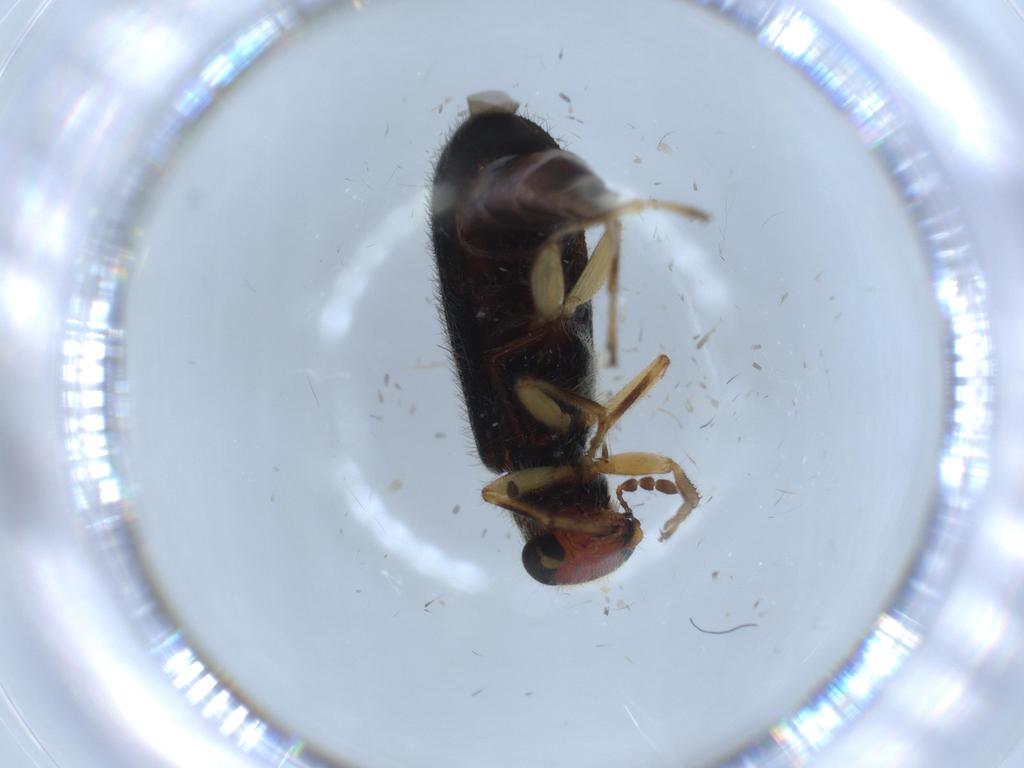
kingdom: Animalia
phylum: Arthropoda
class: Insecta
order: Coleoptera
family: Cleridae
